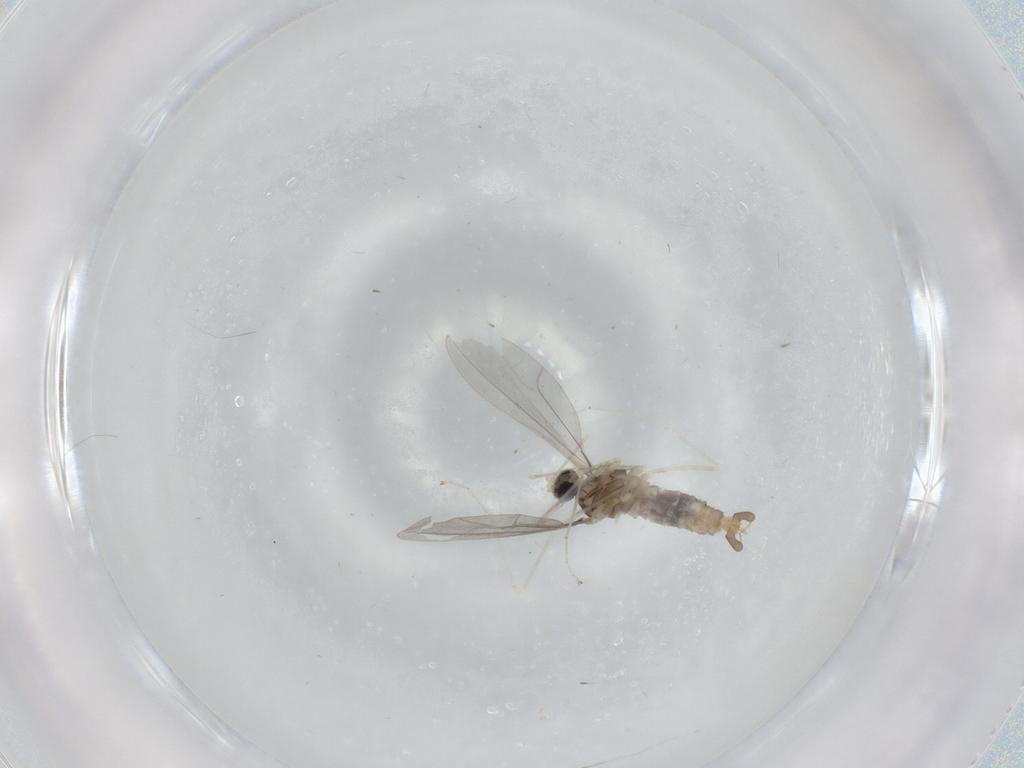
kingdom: Animalia
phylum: Arthropoda
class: Insecta
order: Diptera
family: Cecidomyiidae
